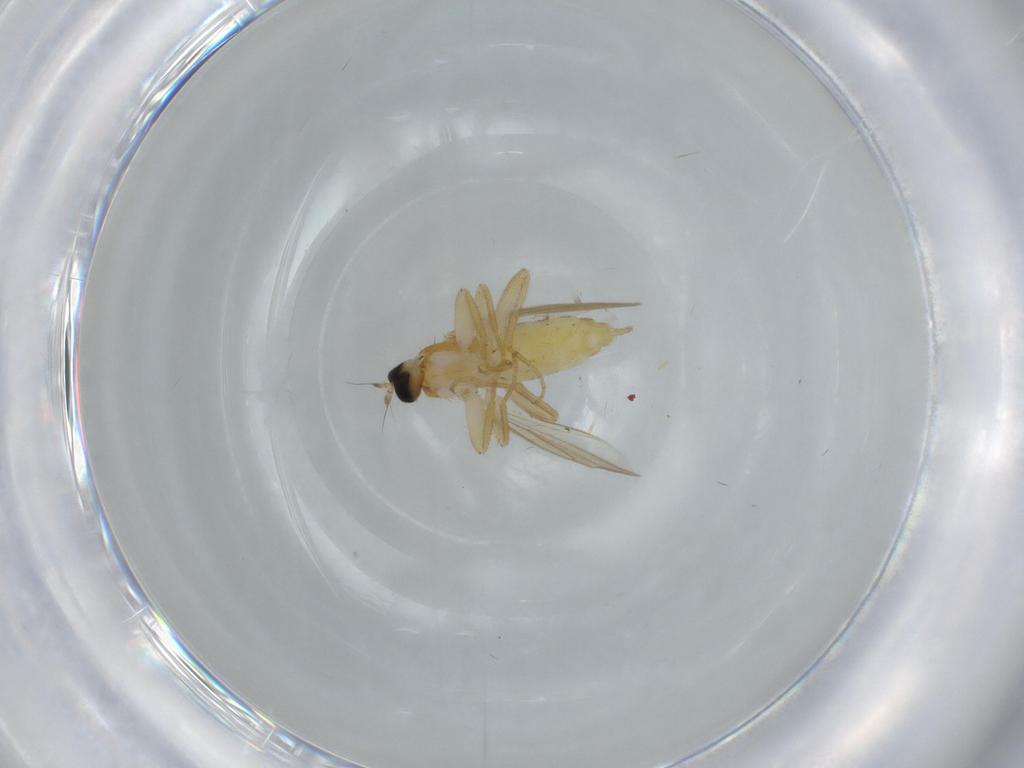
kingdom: Animalia
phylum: Arthropoda
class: Insecta
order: Diptera
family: Hybotidae
